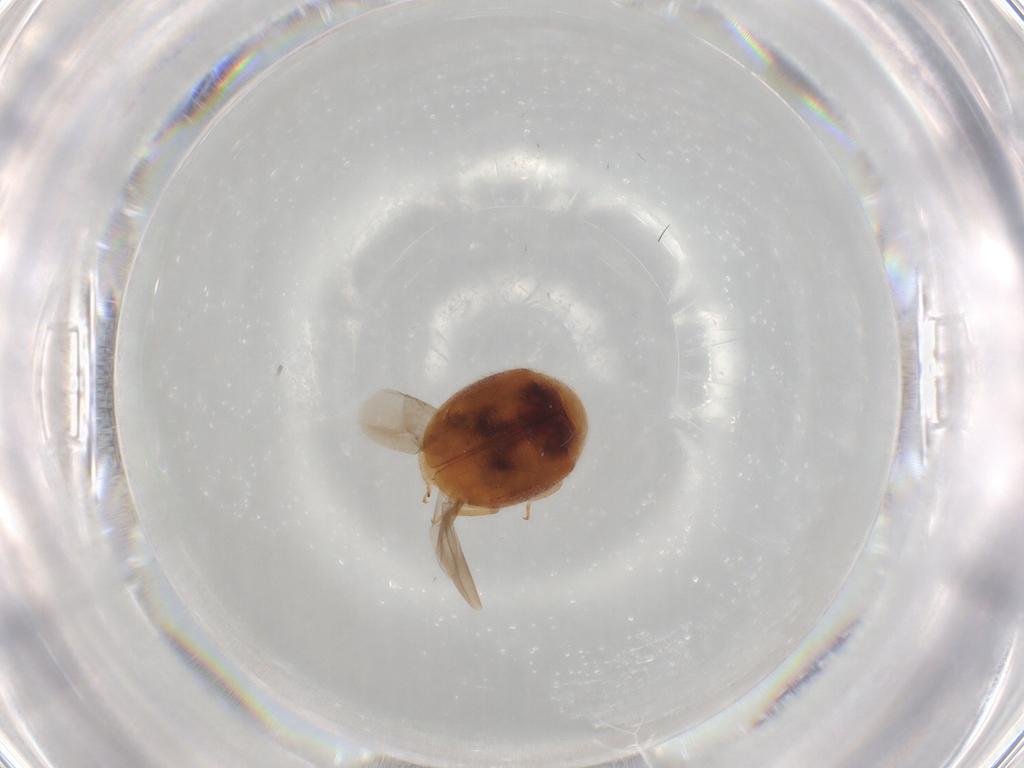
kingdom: Animalia
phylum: Arthropoda
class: Insecta
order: Coleoptera
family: Coccinellidae
